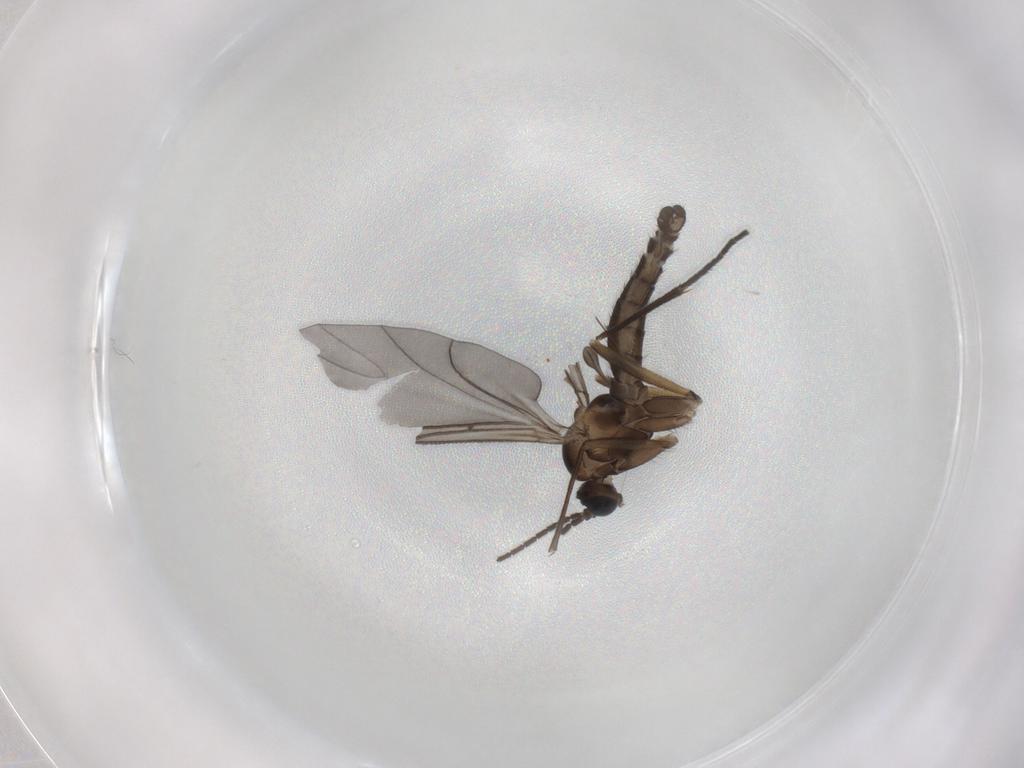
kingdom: Animalia
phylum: Arthropoda
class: Insecta
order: Diptera
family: Sciaridae
